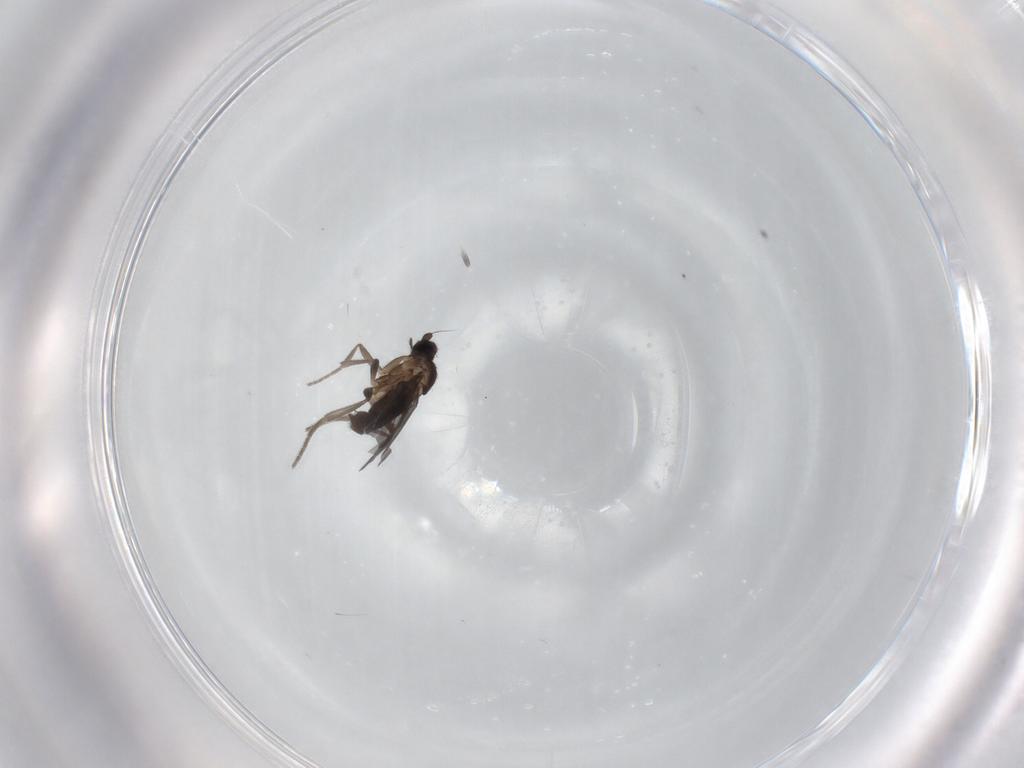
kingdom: Animalia
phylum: Arthropoda
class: Insecta
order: Diptera
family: Phoridae
